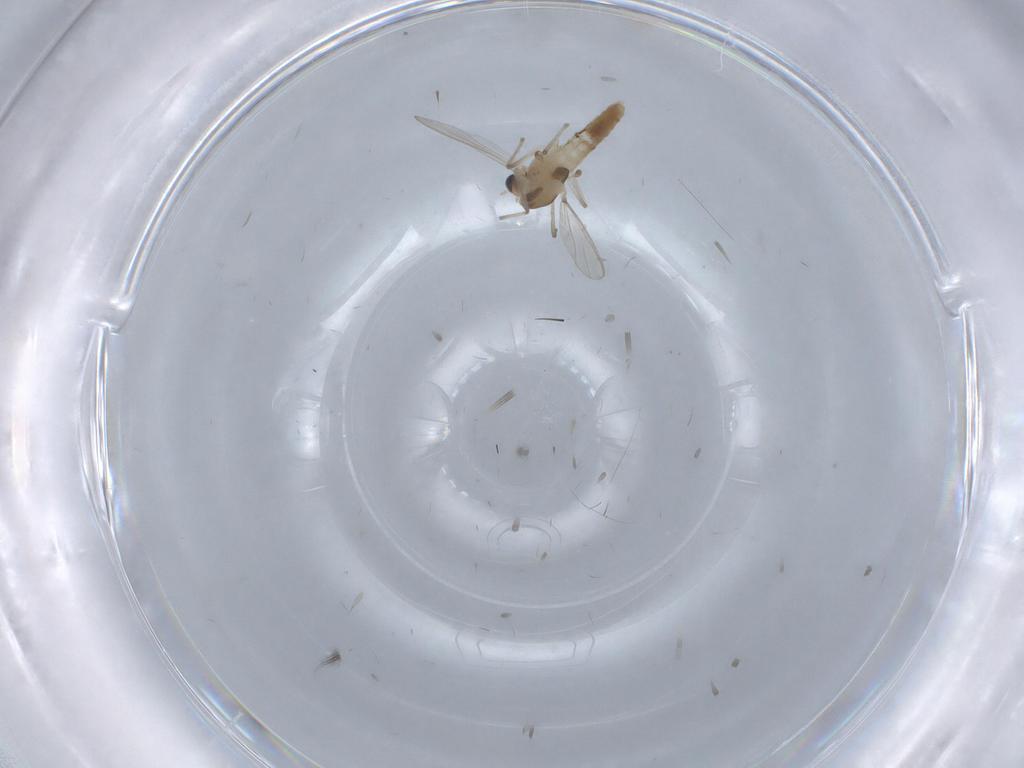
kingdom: Animalia
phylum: Arthropoda
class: Insecta
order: Diptera
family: Chironomidae
